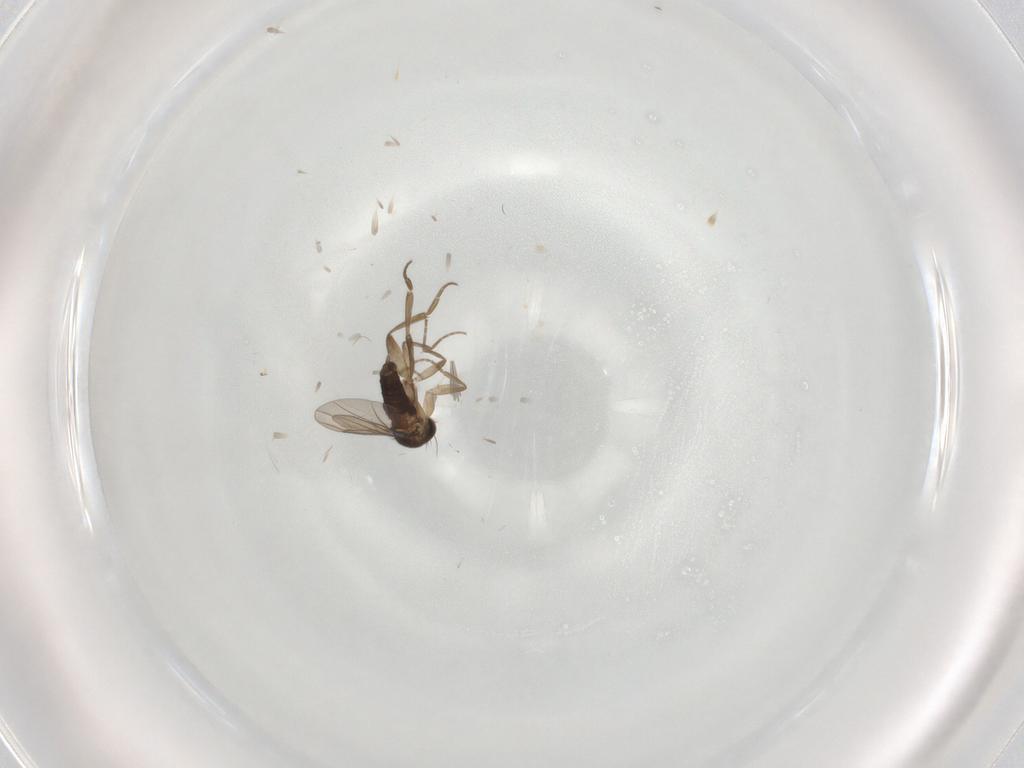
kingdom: Animalia
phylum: Arthropoda
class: Insecta
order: Diptera
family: Phoridae
